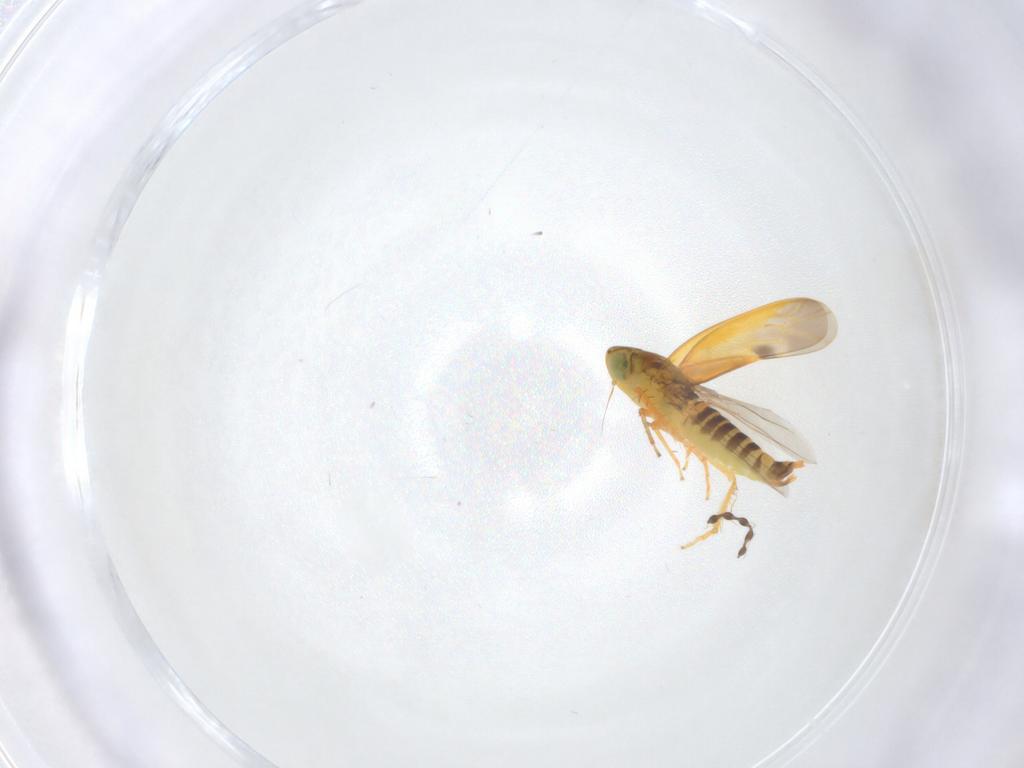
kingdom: Animalia
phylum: Arthropoda
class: Insecta
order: Hemiptera
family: Cicadellidae
